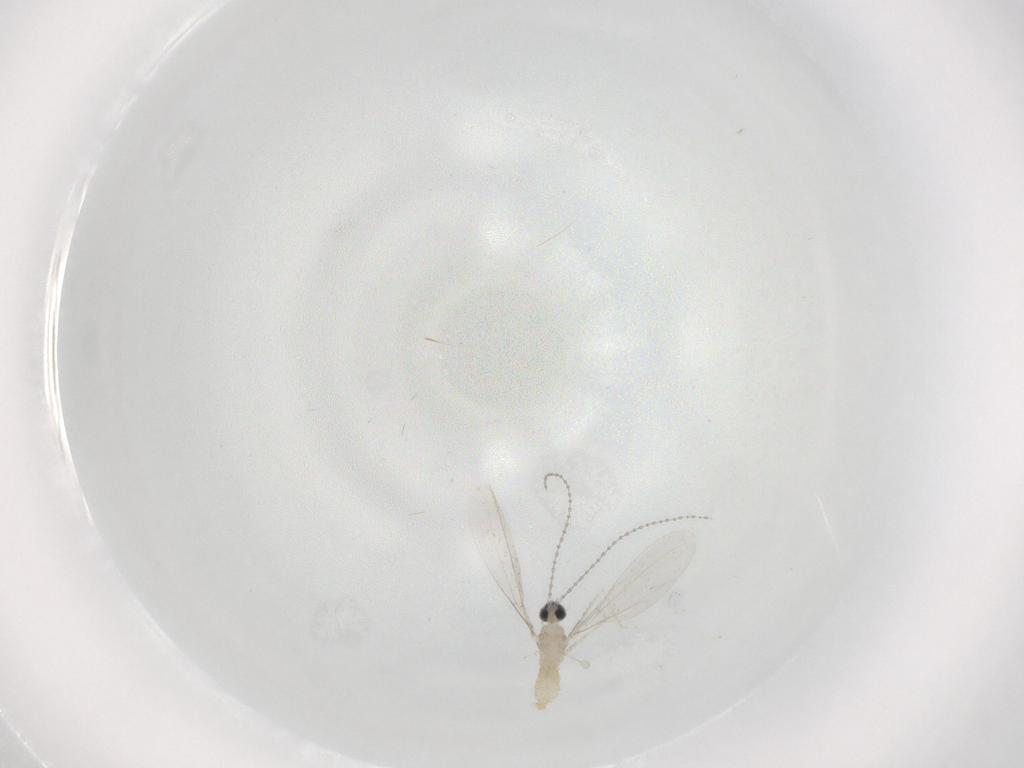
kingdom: Animalia
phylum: Arthropoda
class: Insecta
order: Diptera
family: Cecidomyiidae
